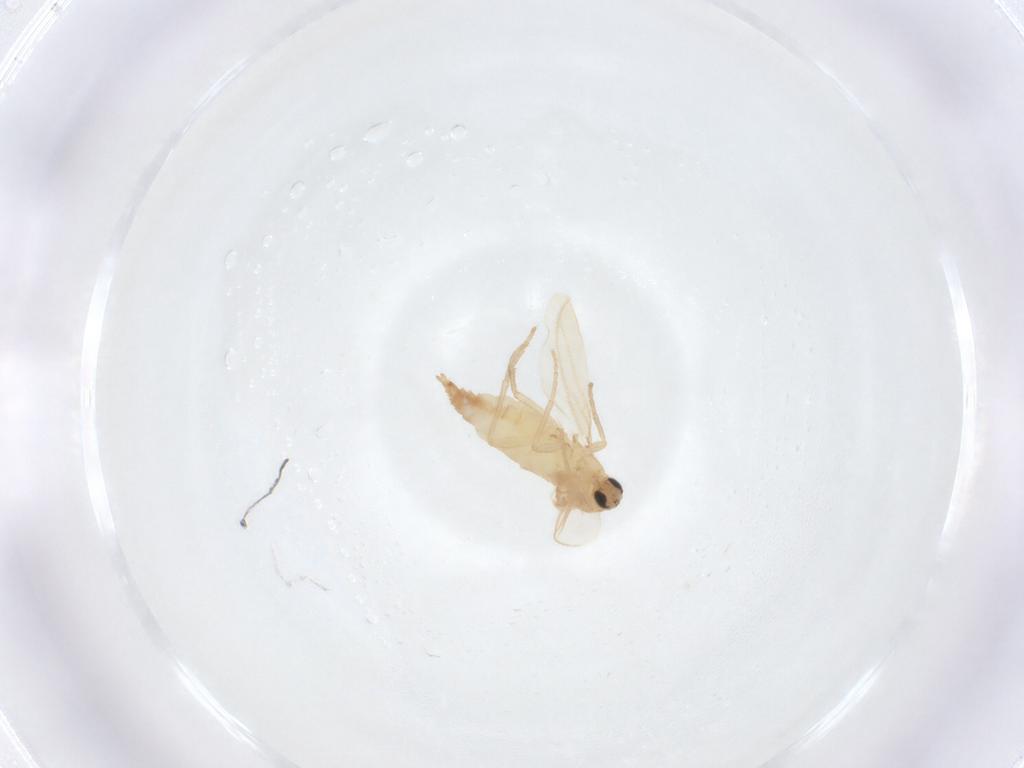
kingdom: Animalia
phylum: Arthropoda
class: Insecta
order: Diptera
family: Sciaridae
